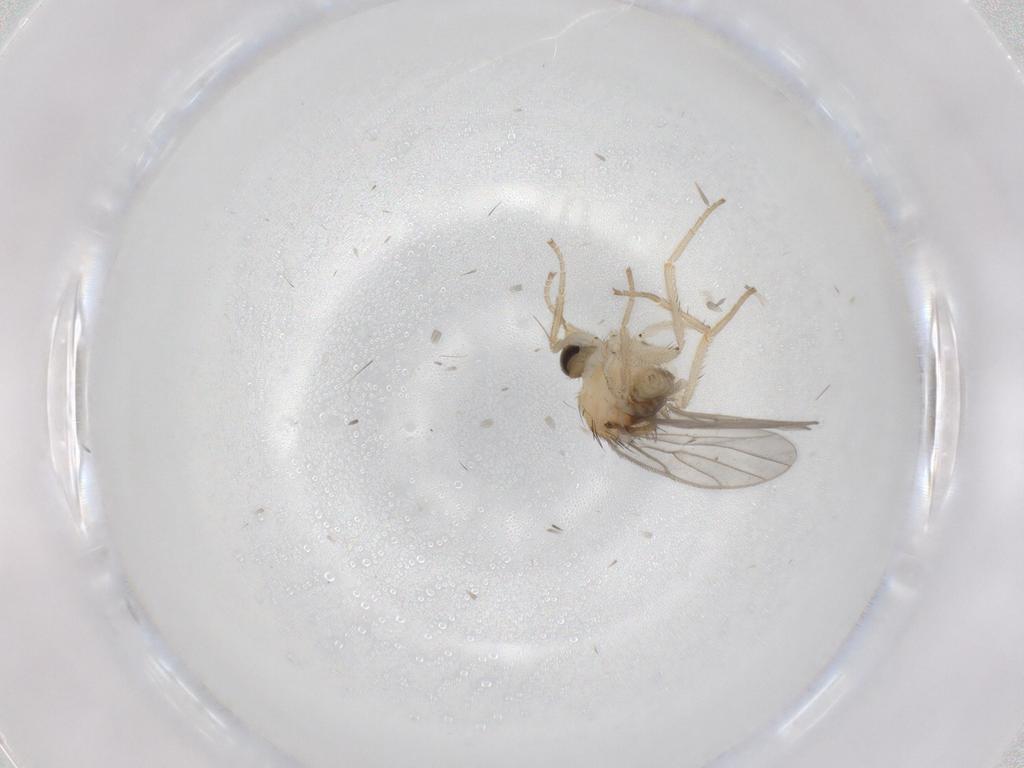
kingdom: Animalia
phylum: Arthropoda
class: Insecta
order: Diptera
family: Hybotidae
